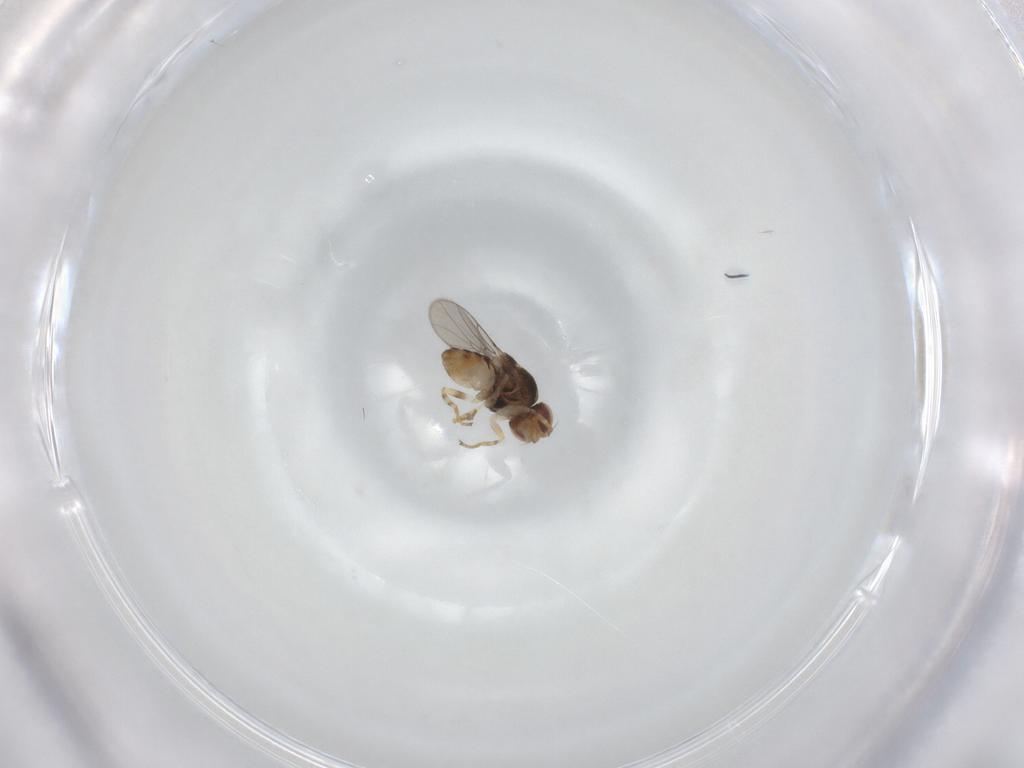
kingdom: Animalia
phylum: Arthropoda
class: Insecta
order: Diptera
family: Chloropidae
